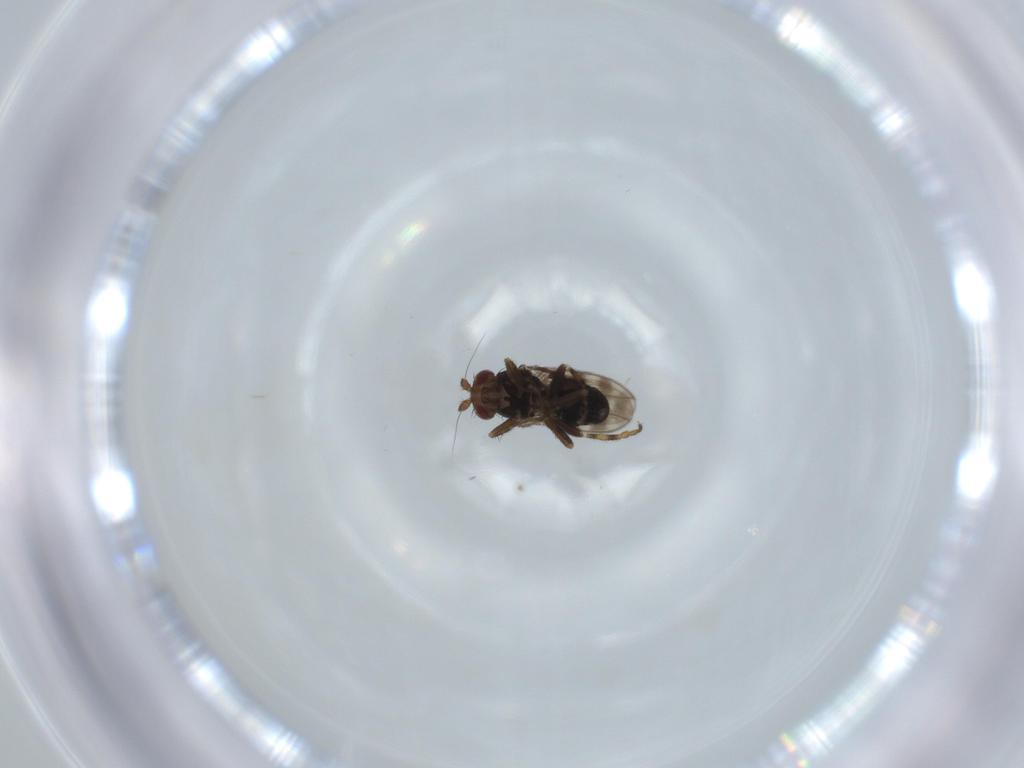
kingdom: Animalia
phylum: Arthropoda
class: Insecta
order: Diptera
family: Sphaeroceridae
